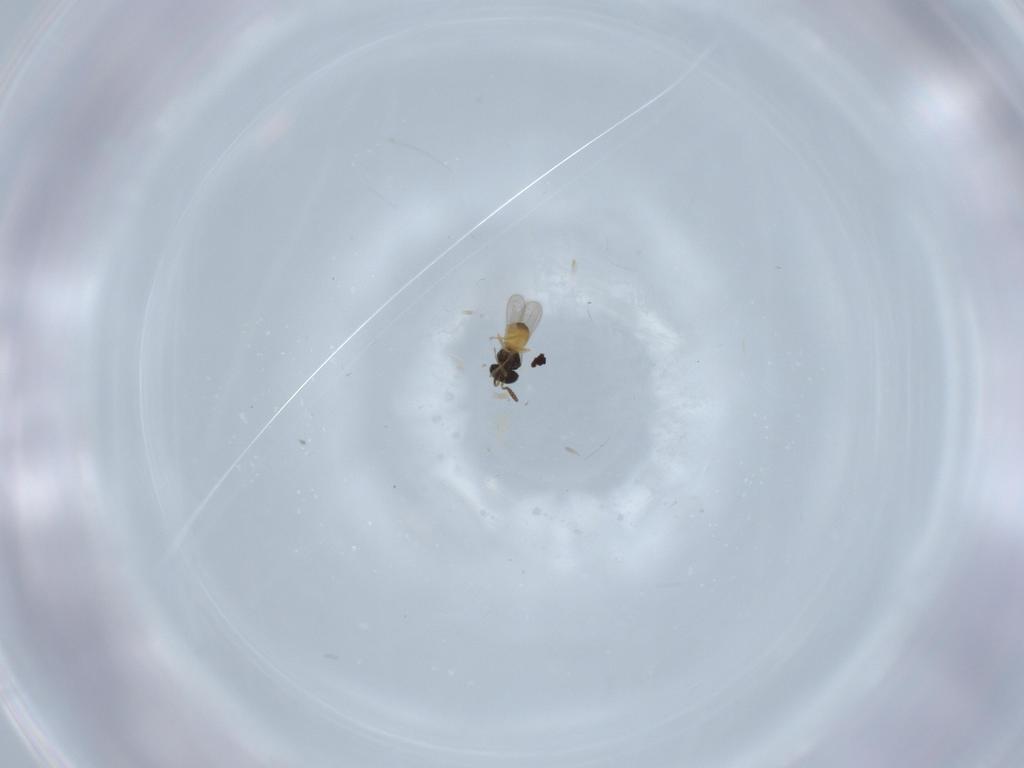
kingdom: Animalia
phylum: Arthropoda
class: Insecta
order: Hymenoptera
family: Scelionidae
